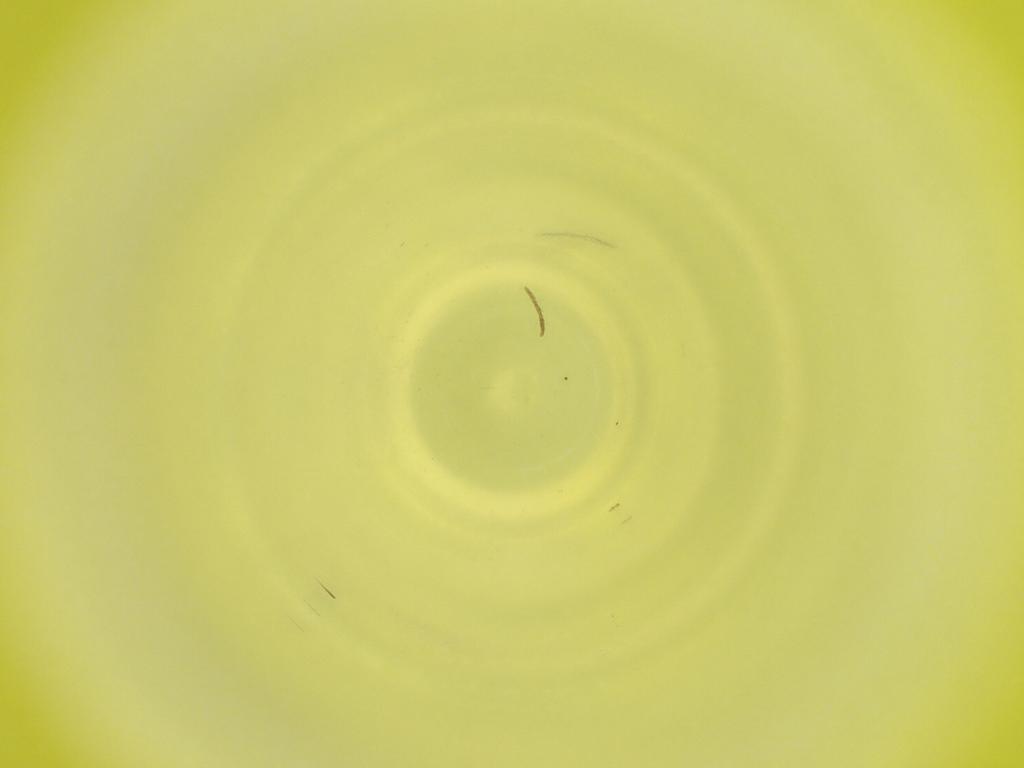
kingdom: Animalia
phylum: Arthropoda
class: Insecta
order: Diptera
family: Cecidomyiidae
